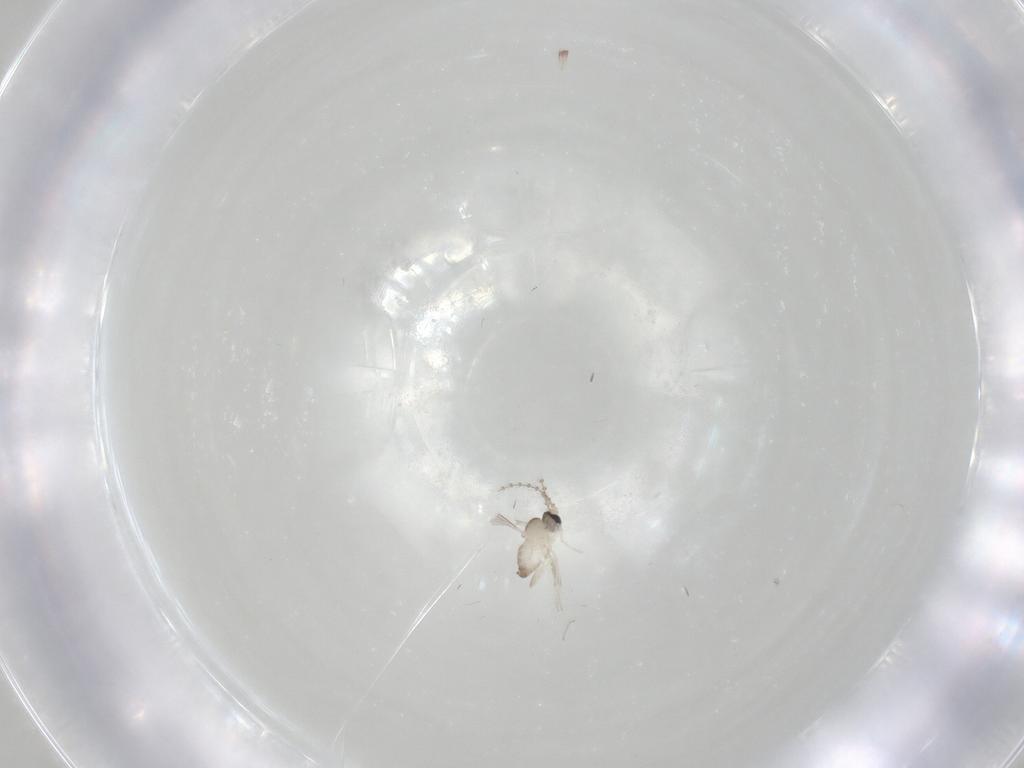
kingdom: Animalia
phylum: Arthropoda
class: Insecta
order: Diptera
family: Cecidomyiidae
